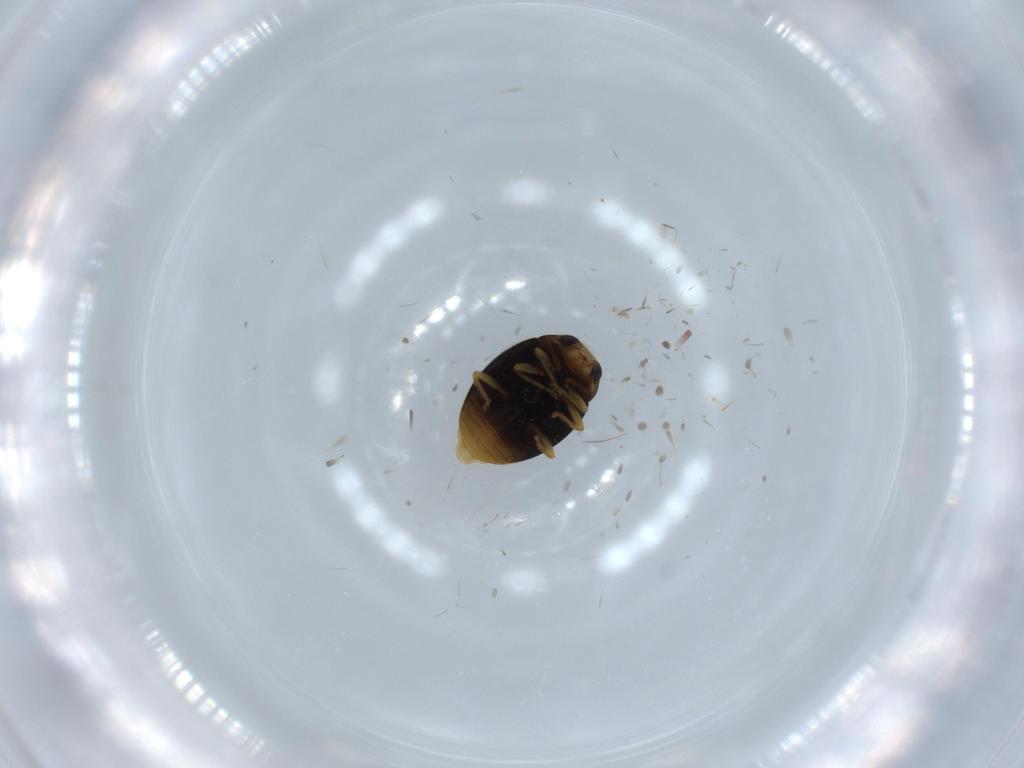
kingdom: Animalia
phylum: Arthropoda
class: Insecta
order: Coleoptera
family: Coccinellidae
